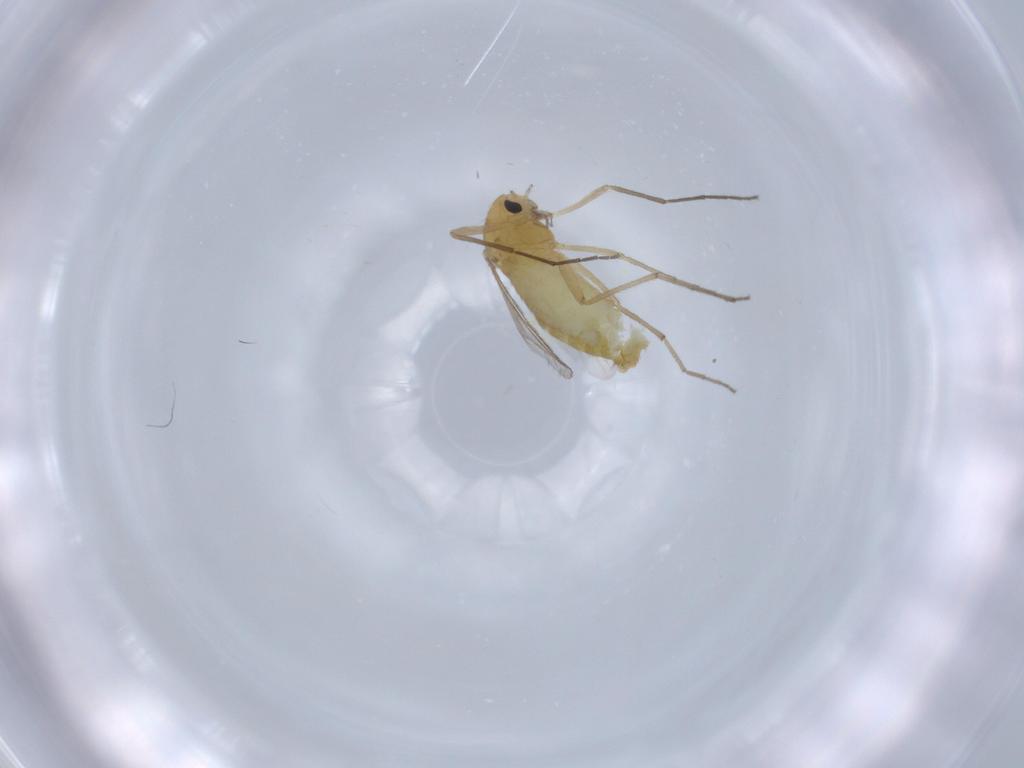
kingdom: Animalia
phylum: Arthropoda
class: Insecta
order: Diptera
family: Chironomidae
